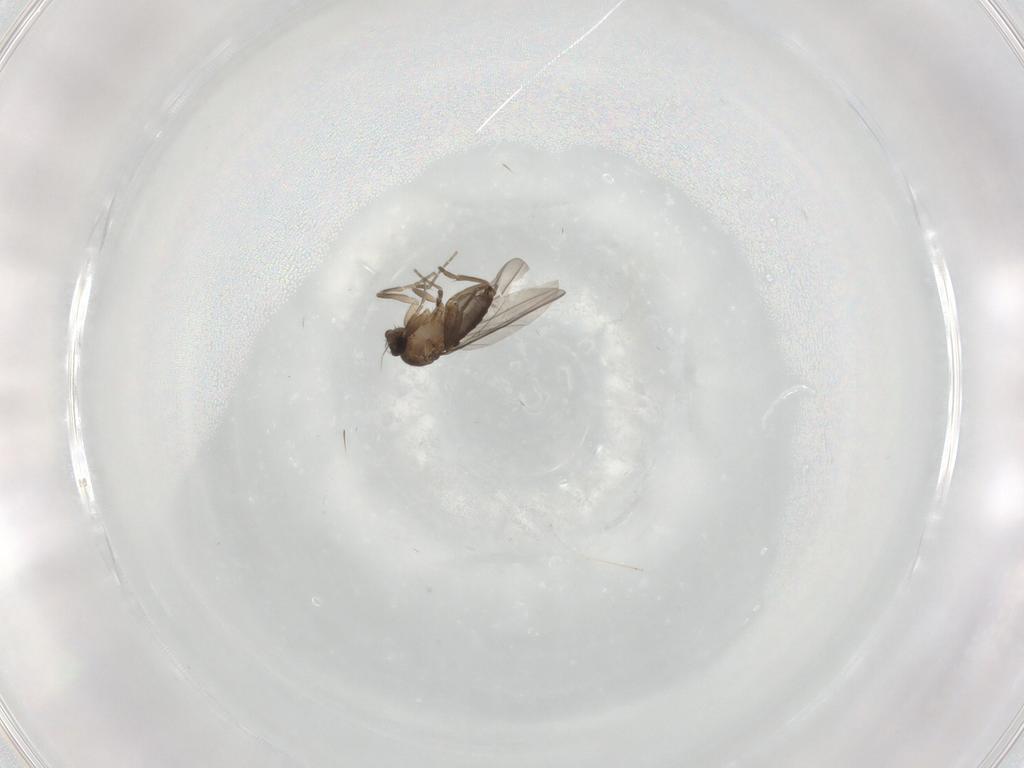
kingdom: Animalia
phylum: Arthropoda
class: Insecta
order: Diptera
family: Phoridae
